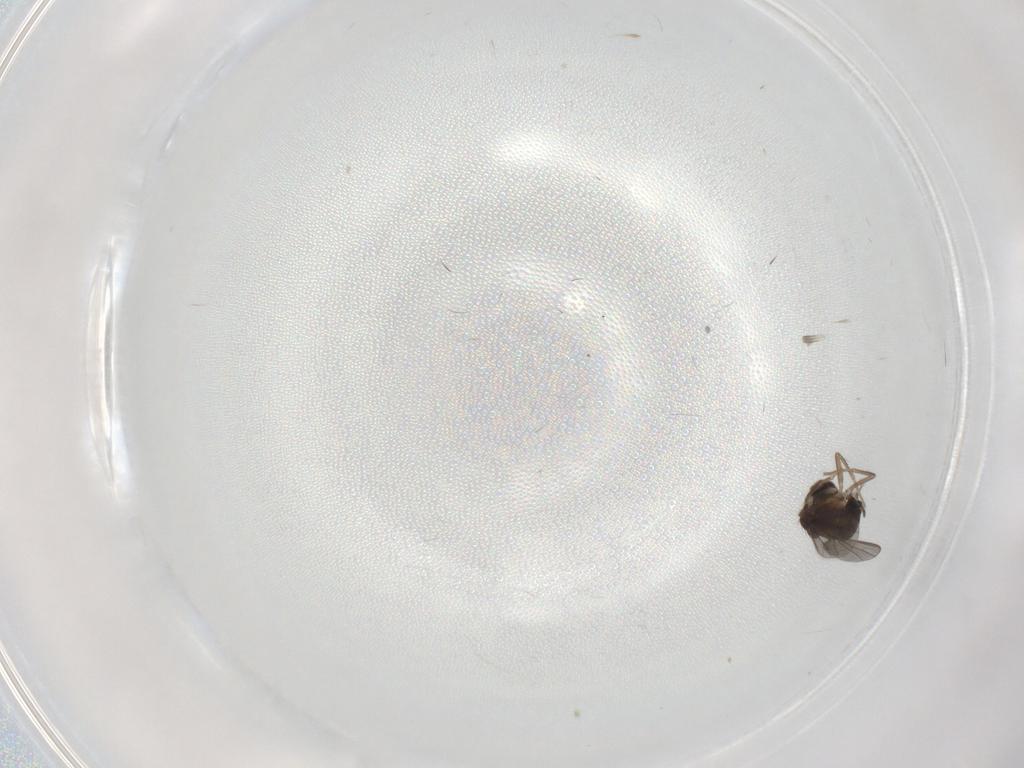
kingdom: Animalia
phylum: Arthropoda
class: Insecta
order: Diptera
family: Dolichopodidae
